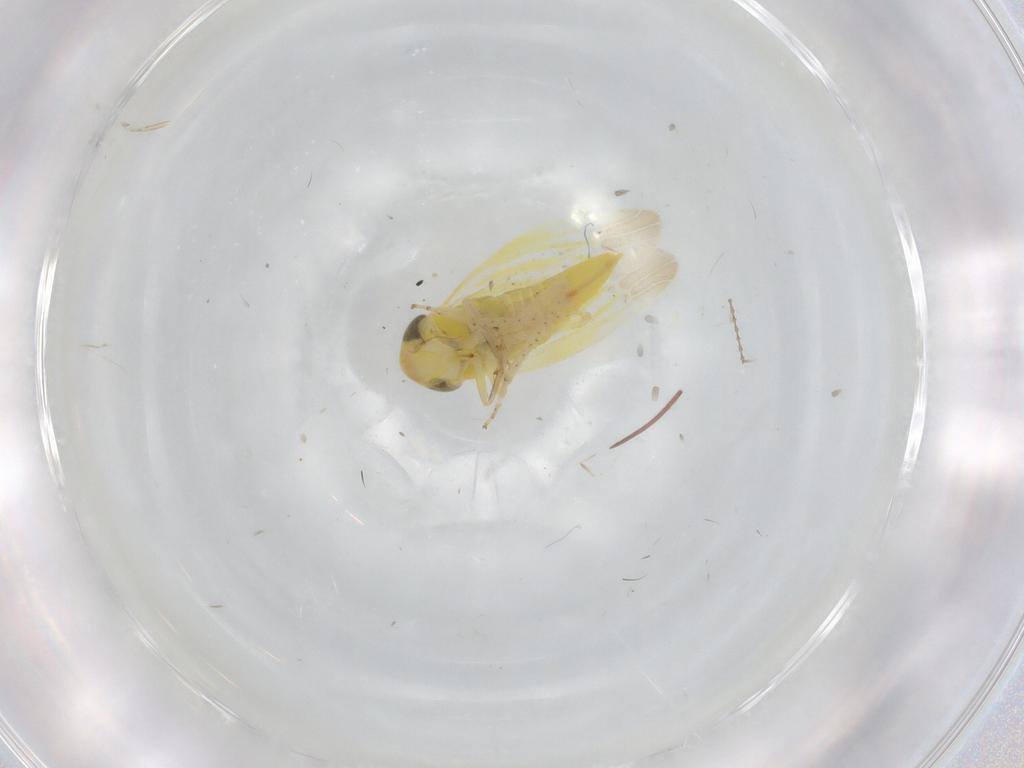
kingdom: Animalia
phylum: Arthropoda
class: Insecta
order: Hemiptera
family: Cicadellidae
